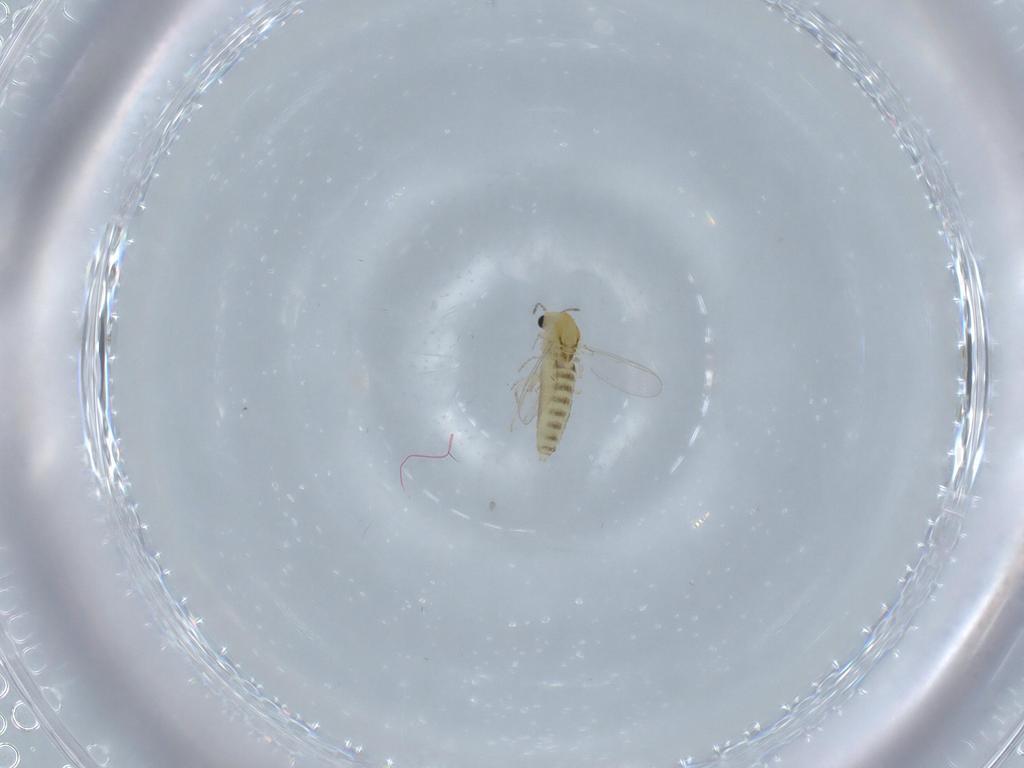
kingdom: Animalia
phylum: Arthropoda
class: Insecta
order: Diptera
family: Cecidomyiidae
